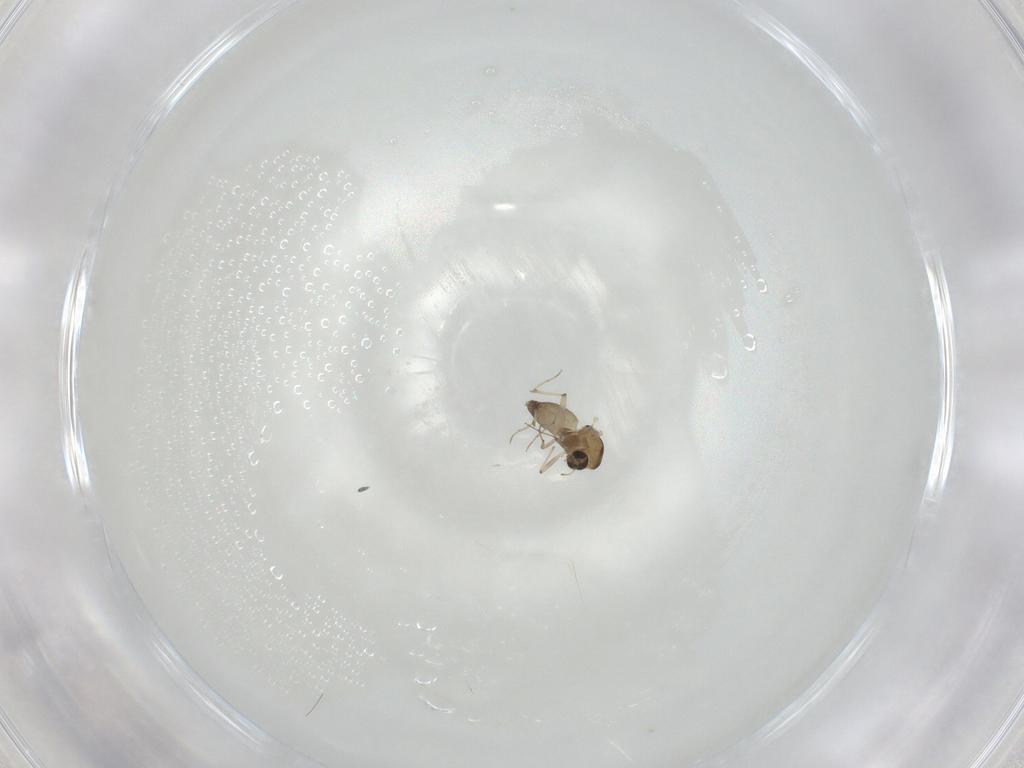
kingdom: Animalia
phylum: Arthropoda
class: Insecta
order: Diptera
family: Chironomidae
